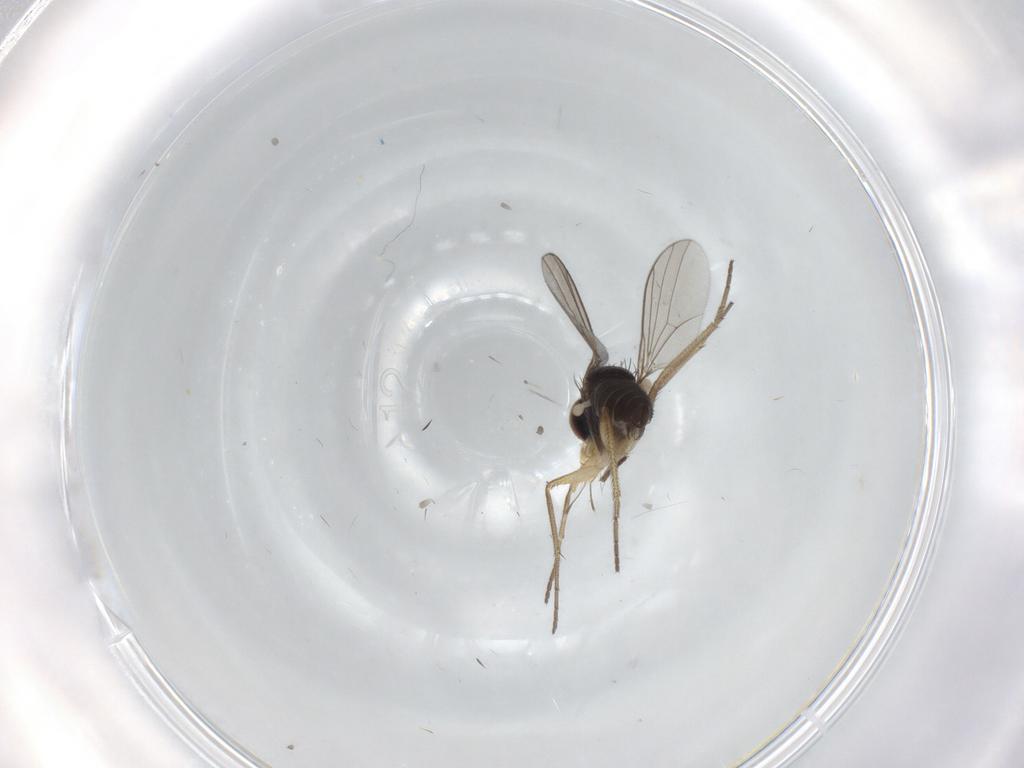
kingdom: Animalia
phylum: Arthropoda
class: Insecta
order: Diptera
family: Dolichopodidae
